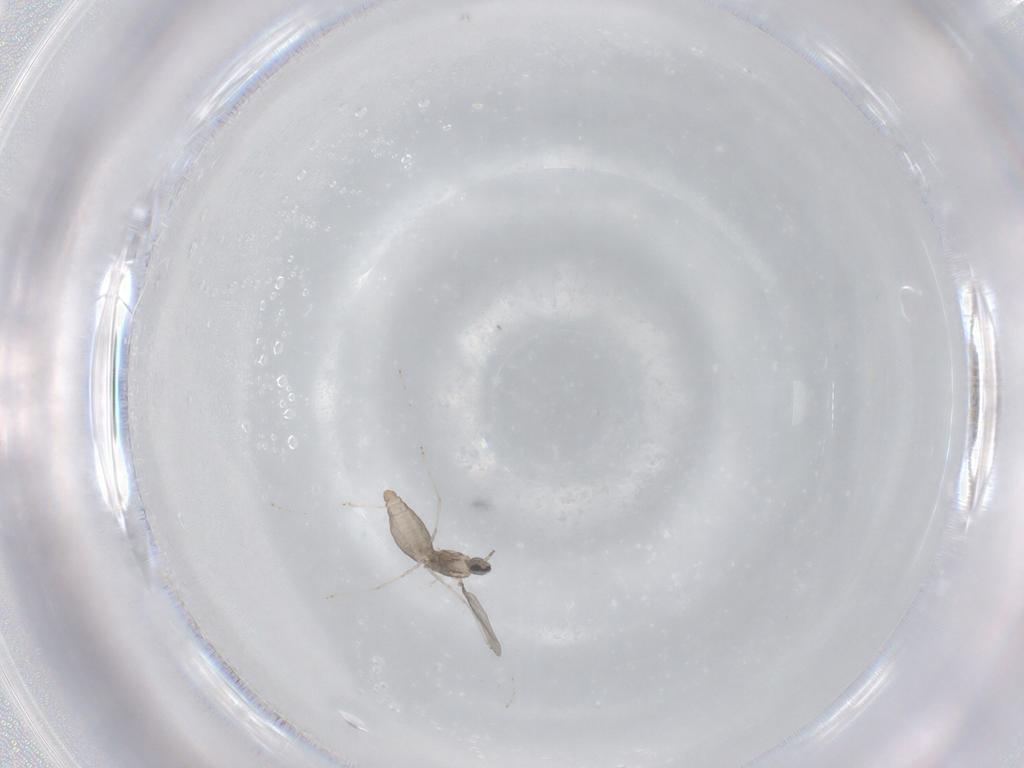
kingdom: Animalia
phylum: Arthropoda
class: Insecta
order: Diptera
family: Cecidomyiidae
